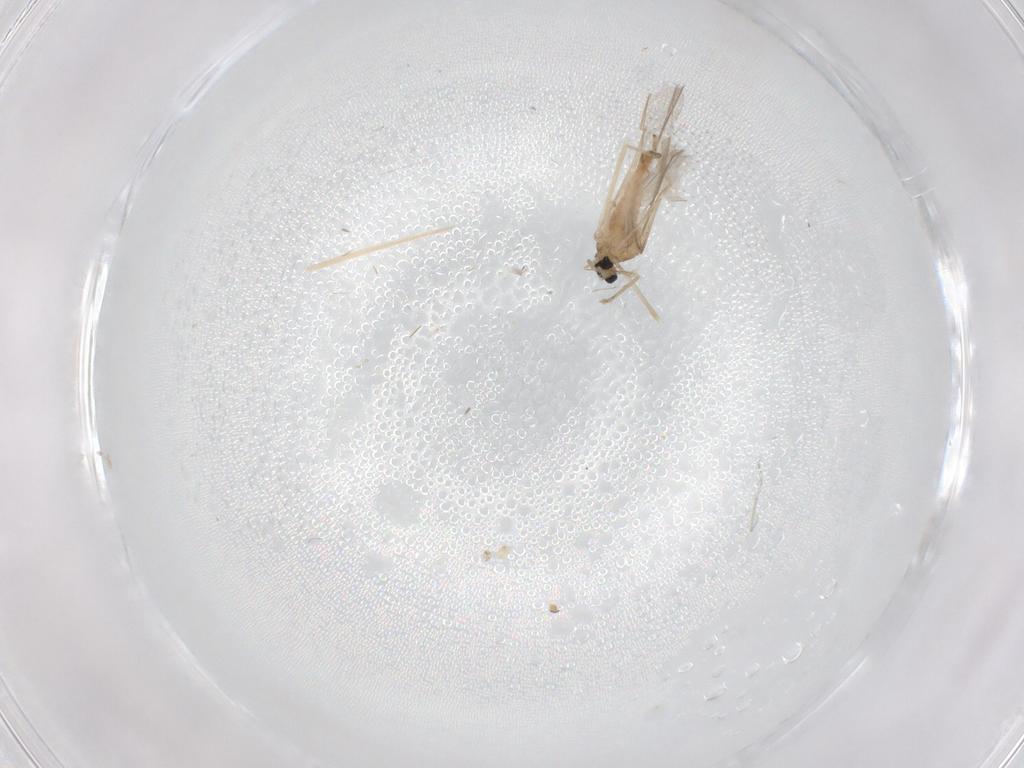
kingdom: Animalia
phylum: Arthropoda
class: Insecta
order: Diptera
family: Cecidomyiidae
